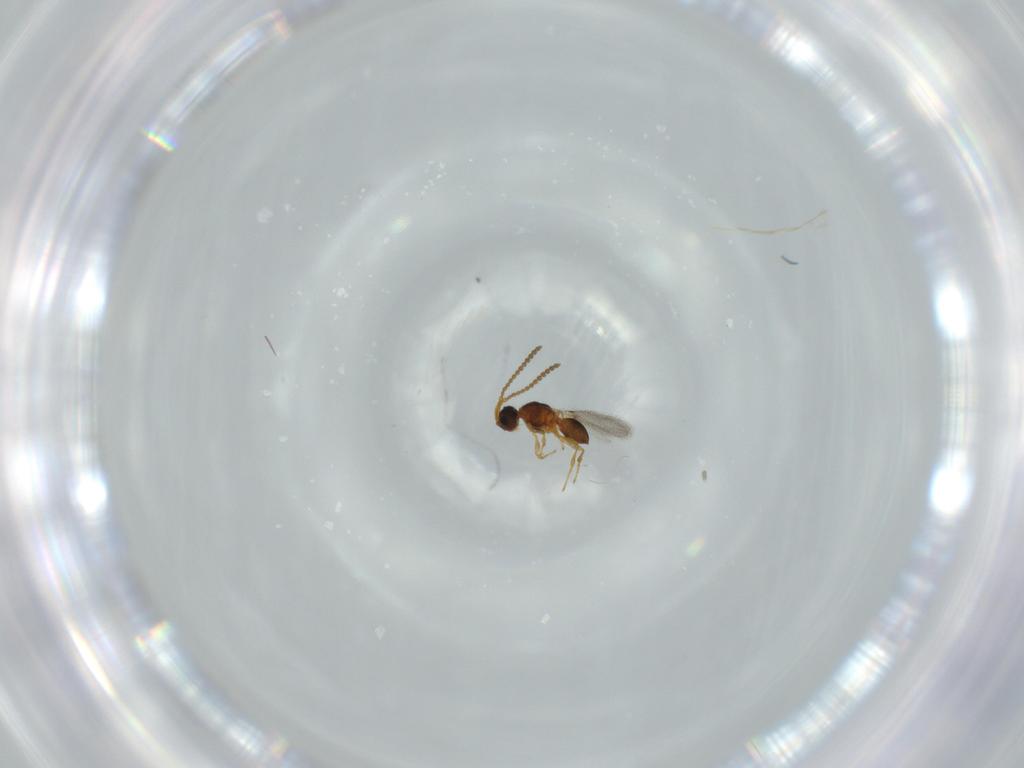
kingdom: Animalia
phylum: Arthropoda
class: Insecta
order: Hymenoptera
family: Diapriidae
